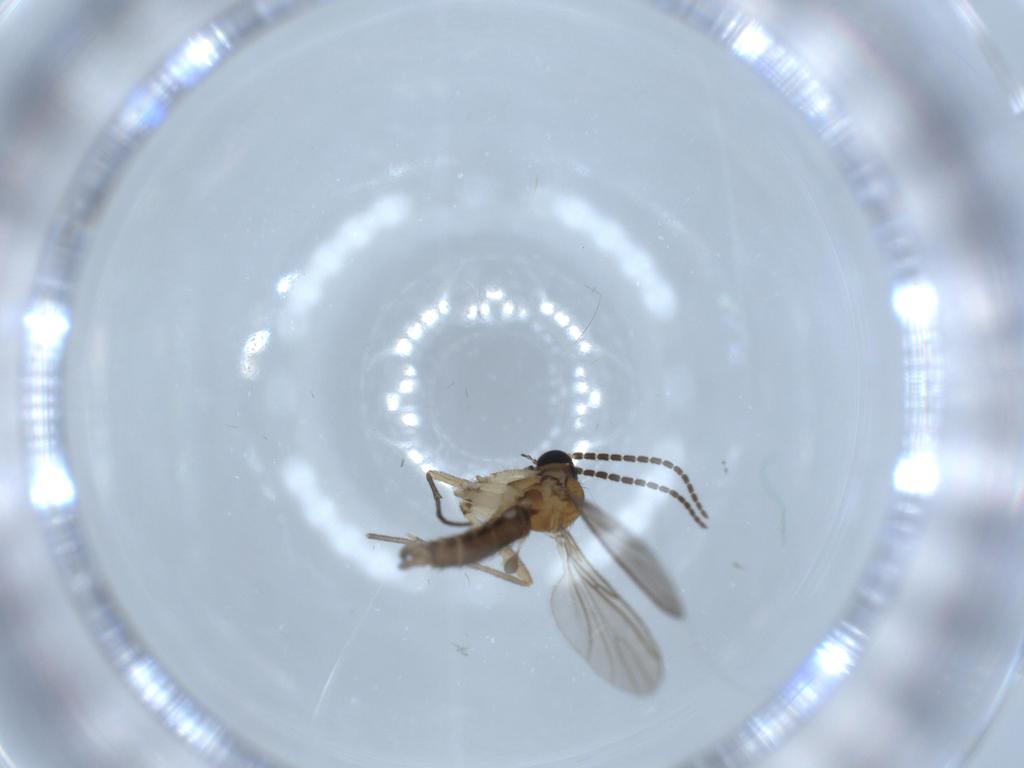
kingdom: Animalia
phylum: Arthropoda
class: Insecta
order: Diptera
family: Sciaridae
